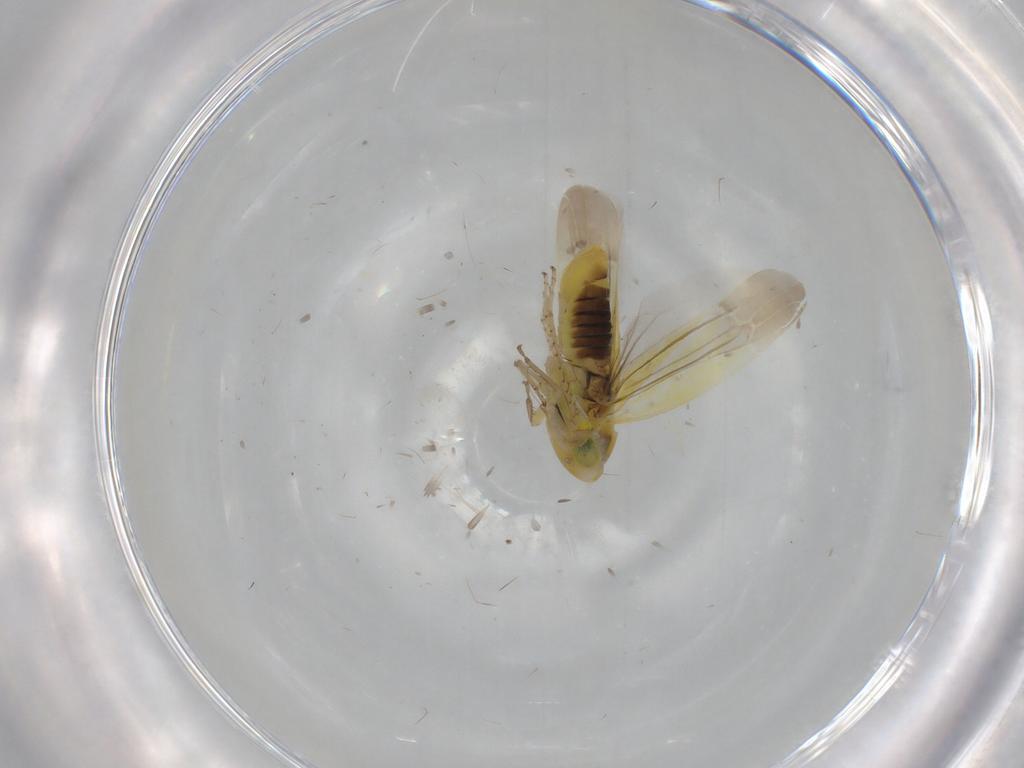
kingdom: Animalia
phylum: Arthropoda
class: Insecta
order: Hemiptera
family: Cicadellidae
